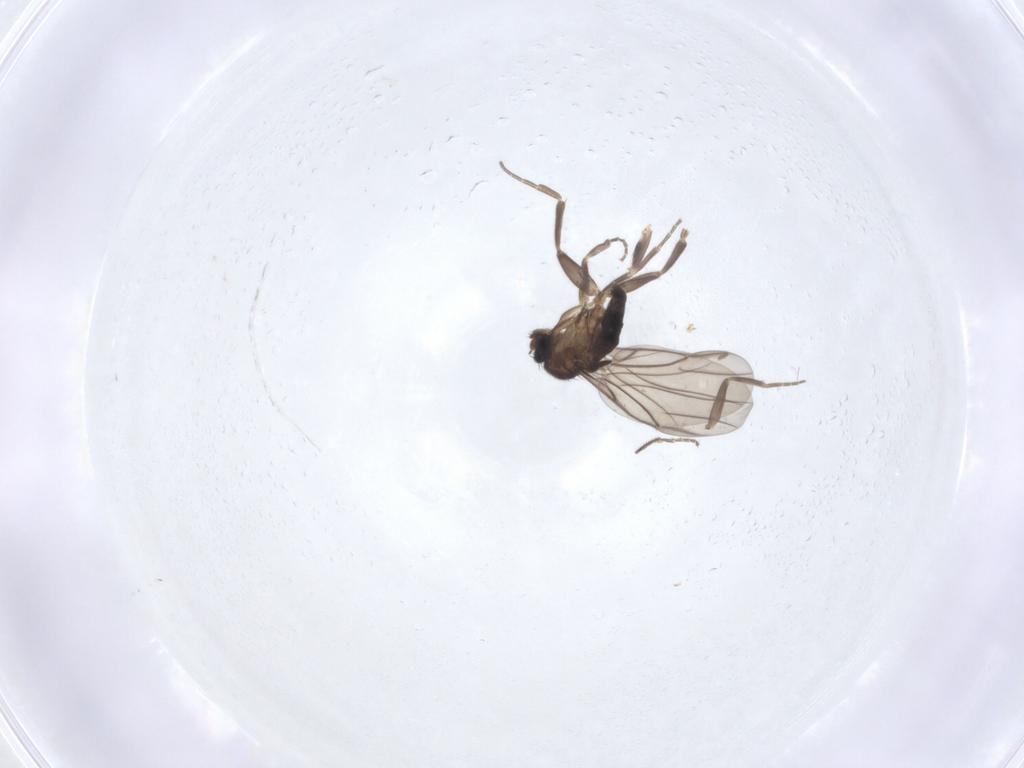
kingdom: Animalia
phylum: Arthropoda
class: Insecta
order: Diptera
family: Phoridae
